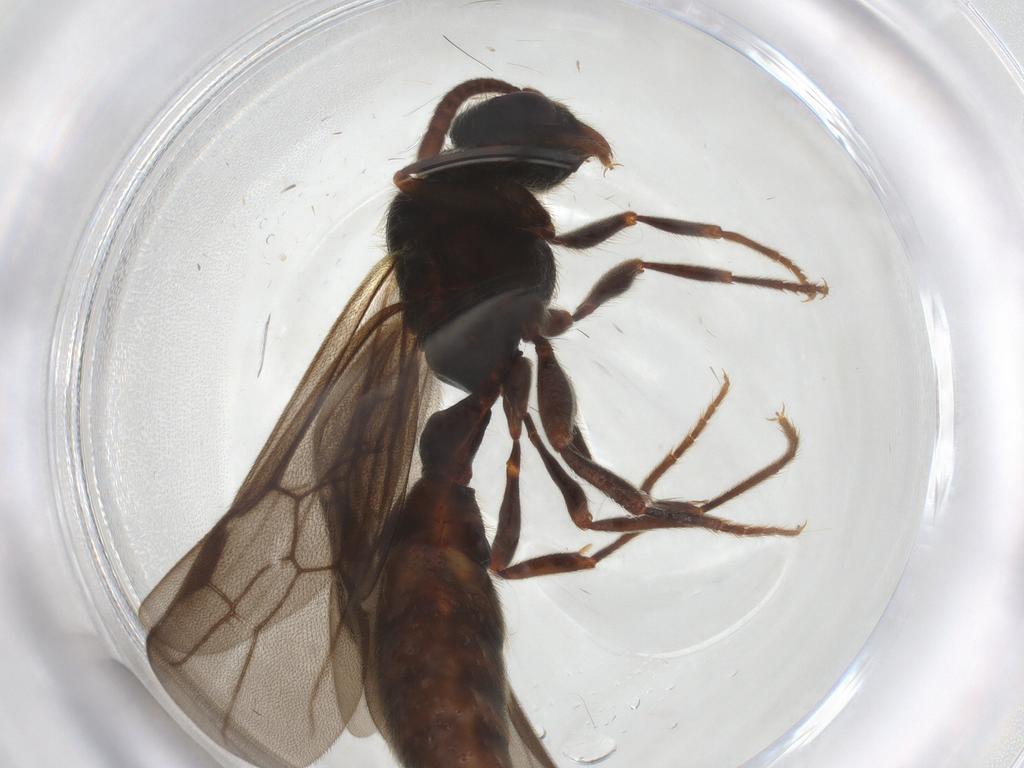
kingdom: Animalia
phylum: Arthropoda
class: Insecta
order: Hymenoptera
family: Formicidae
